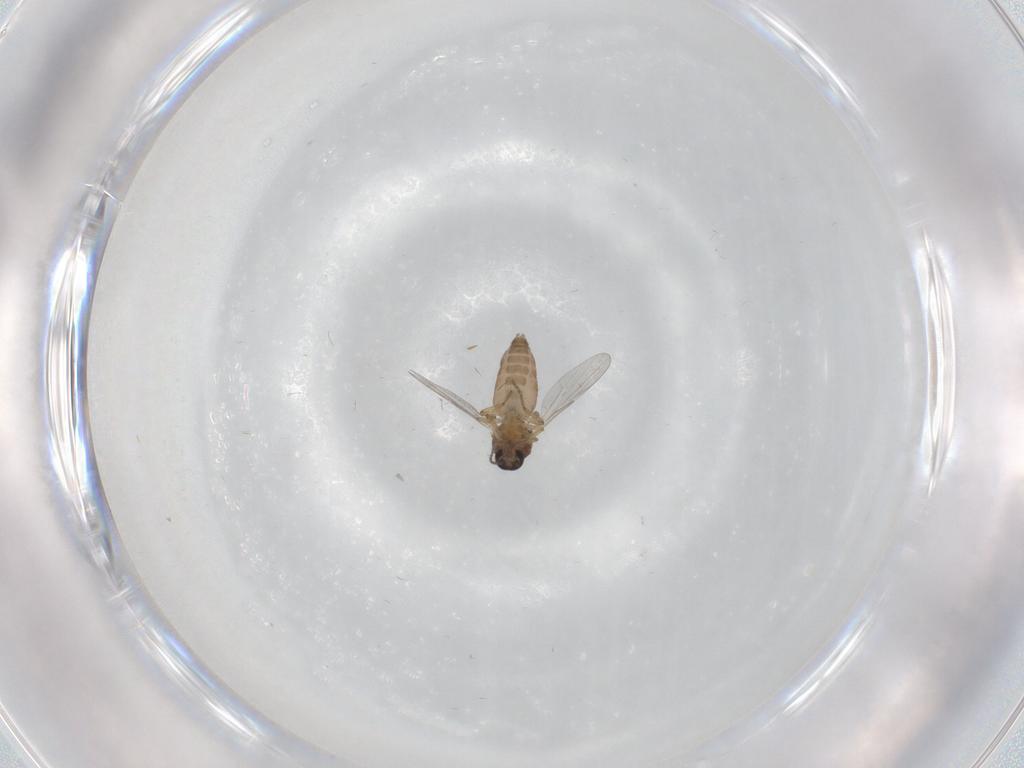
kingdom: Animalia
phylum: Arthropoda
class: Insecta
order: Diptera
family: Ceratopogonidae
